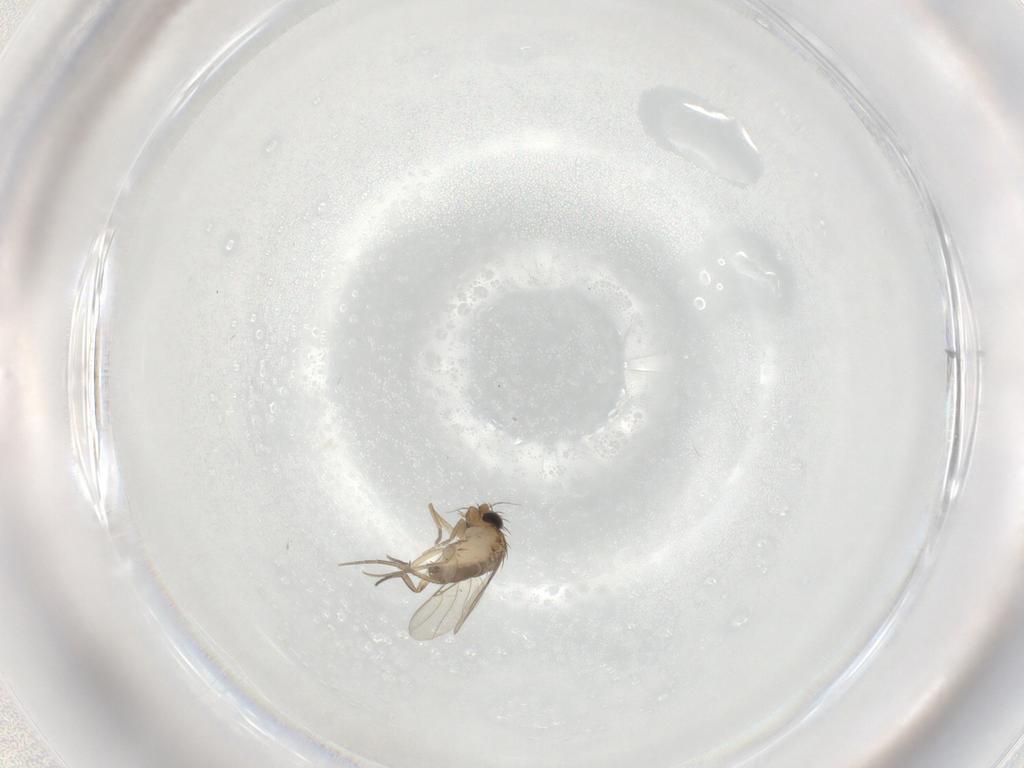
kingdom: Animalia
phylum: Arthropoda
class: Insecta
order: Diptera
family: Phoridae
